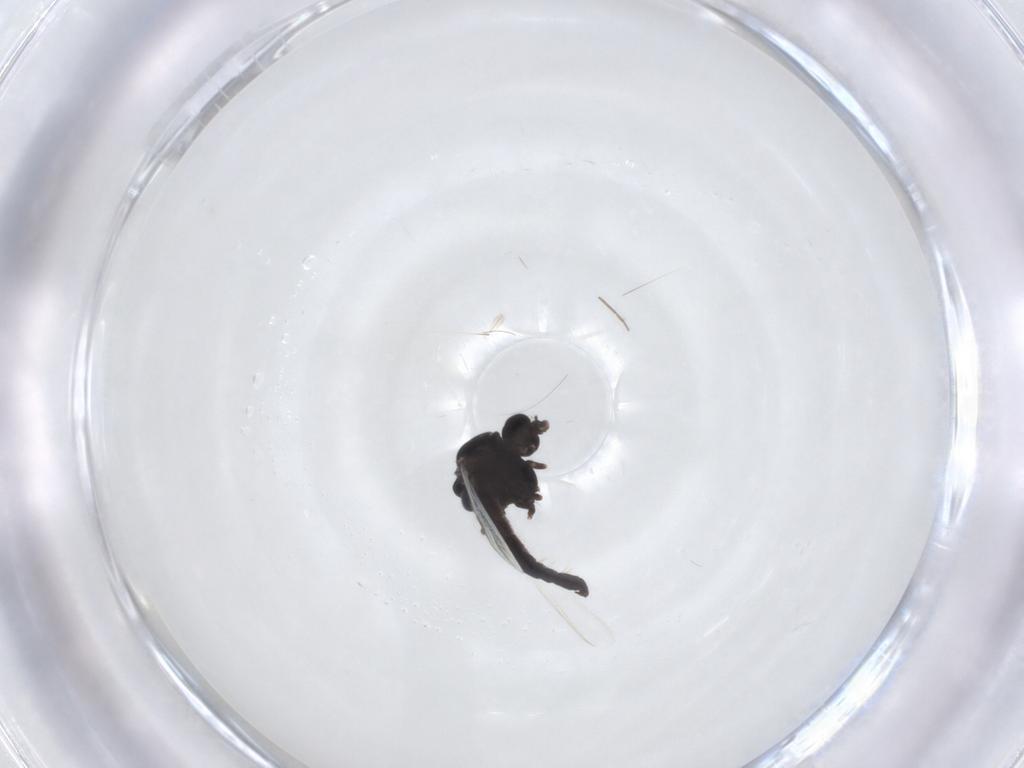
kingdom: Animalia
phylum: Arthropoda
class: Insecta
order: Diptera
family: Chironomidae
